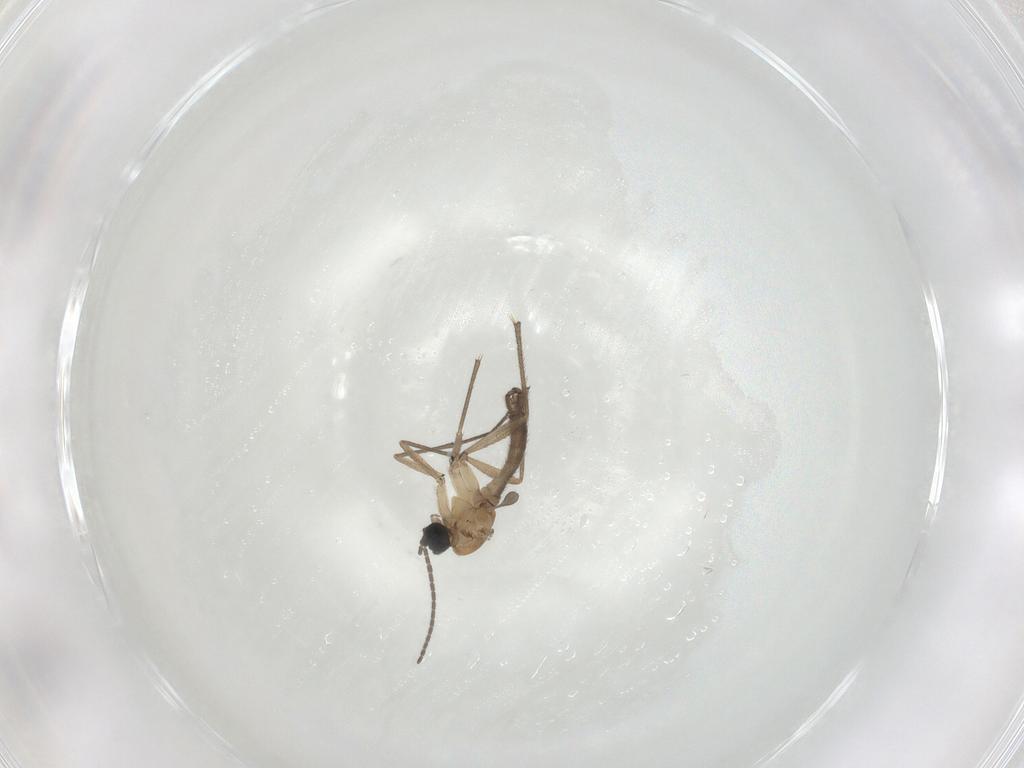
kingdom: Animalia
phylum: Arthropoda
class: Insecta
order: Diptera
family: Sciaridae
